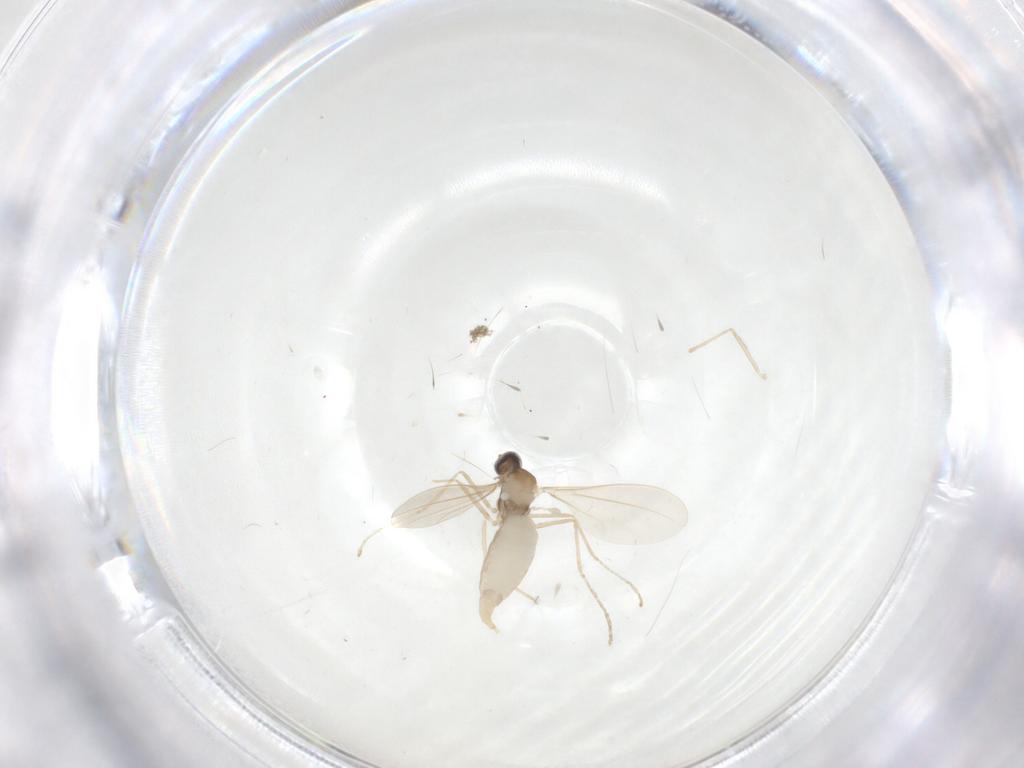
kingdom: Animalia
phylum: Arthropoda
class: Insecta
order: Diptera
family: Cecidomyiidae
